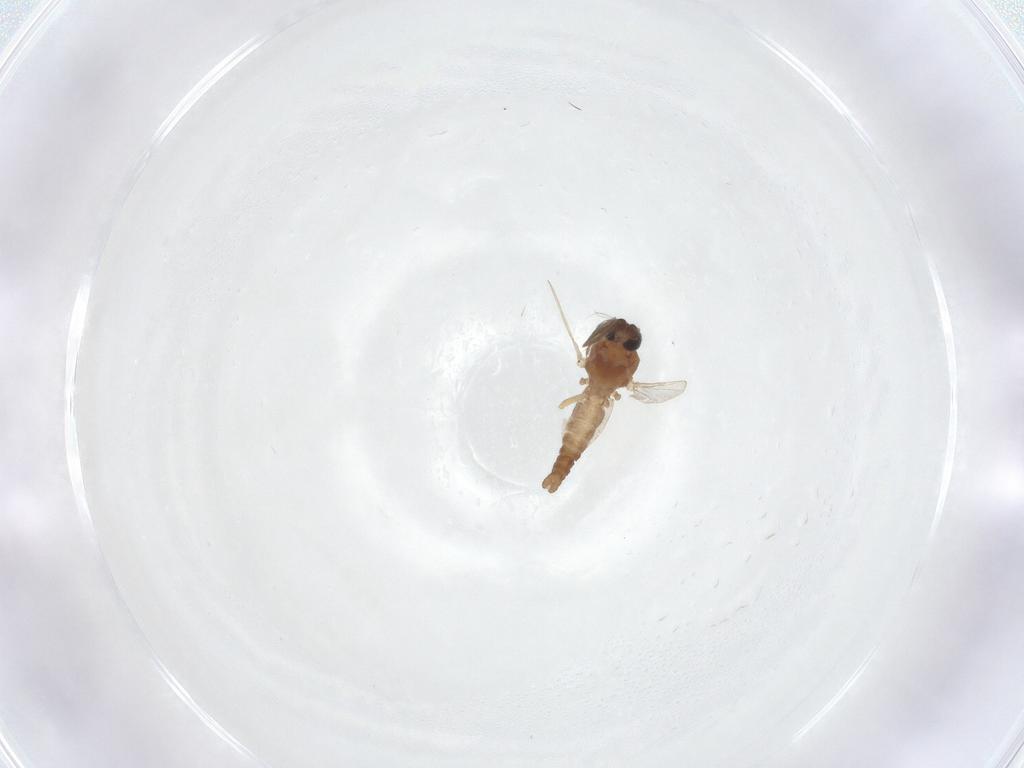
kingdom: Animalia
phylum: Arthropoda
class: Insecta
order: Diptera
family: Ceratopogonidae
